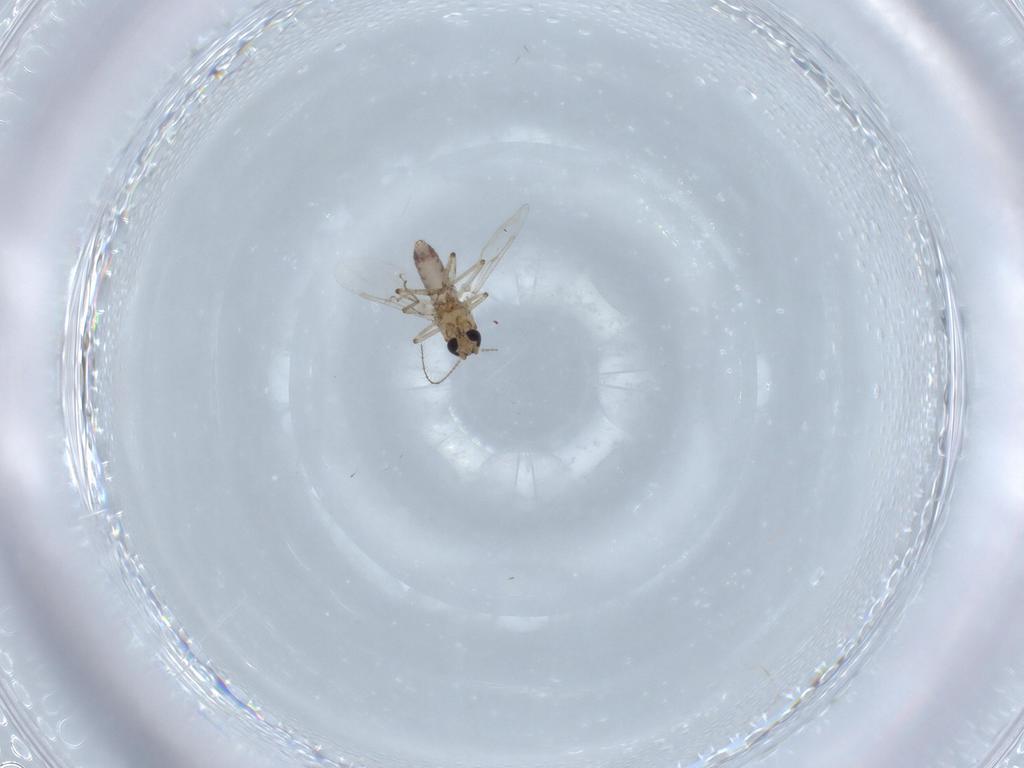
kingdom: Animalia
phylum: Arthropoda
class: Insecta
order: Diptera
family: Ceratopogonidae
